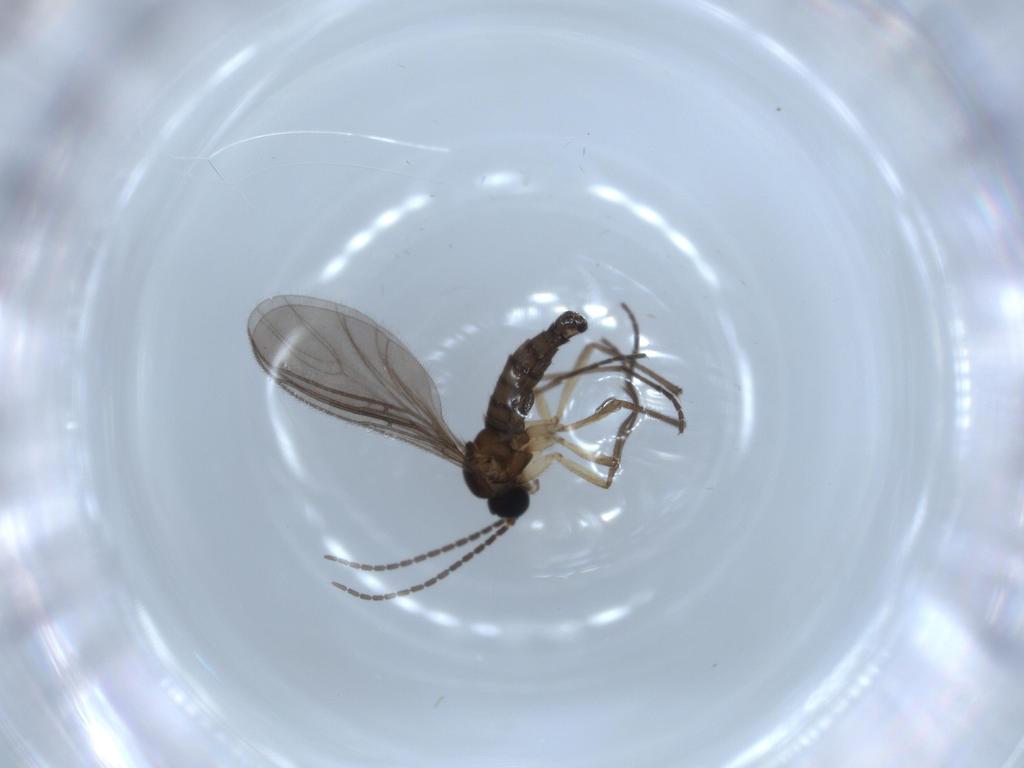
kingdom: Animalia
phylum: Arthropoda
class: Insecta
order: Diptera
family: Sciaridae
